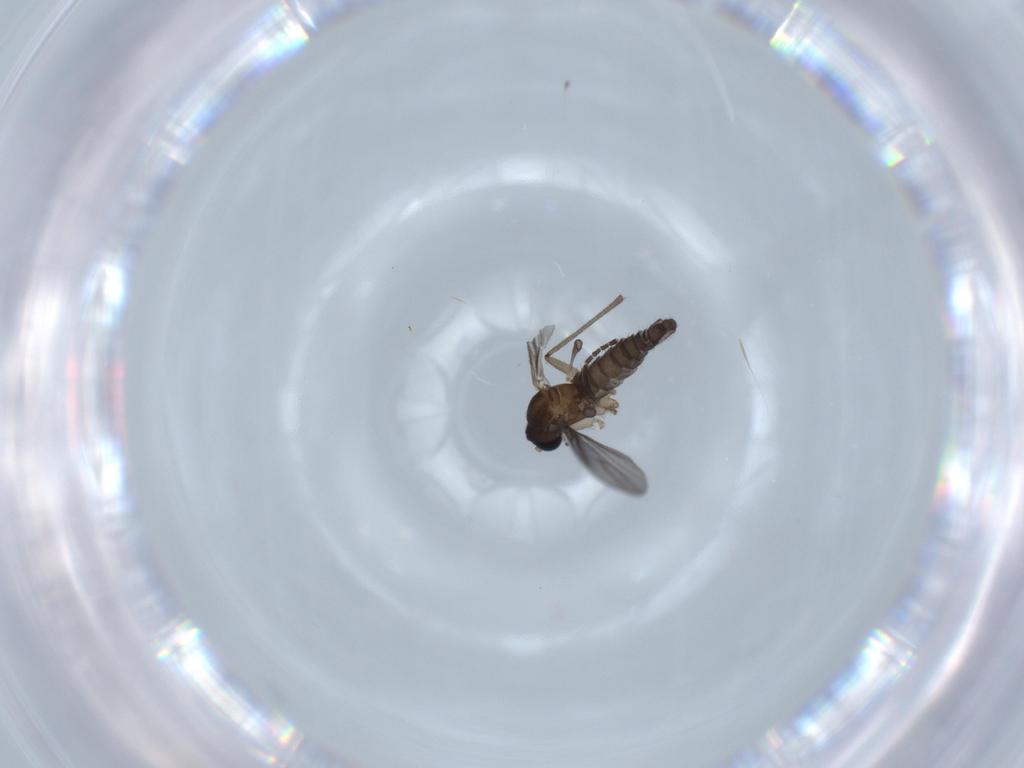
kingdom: Animalia
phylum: Arthropoda
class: Insecta
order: Diptera
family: Sciaridae
